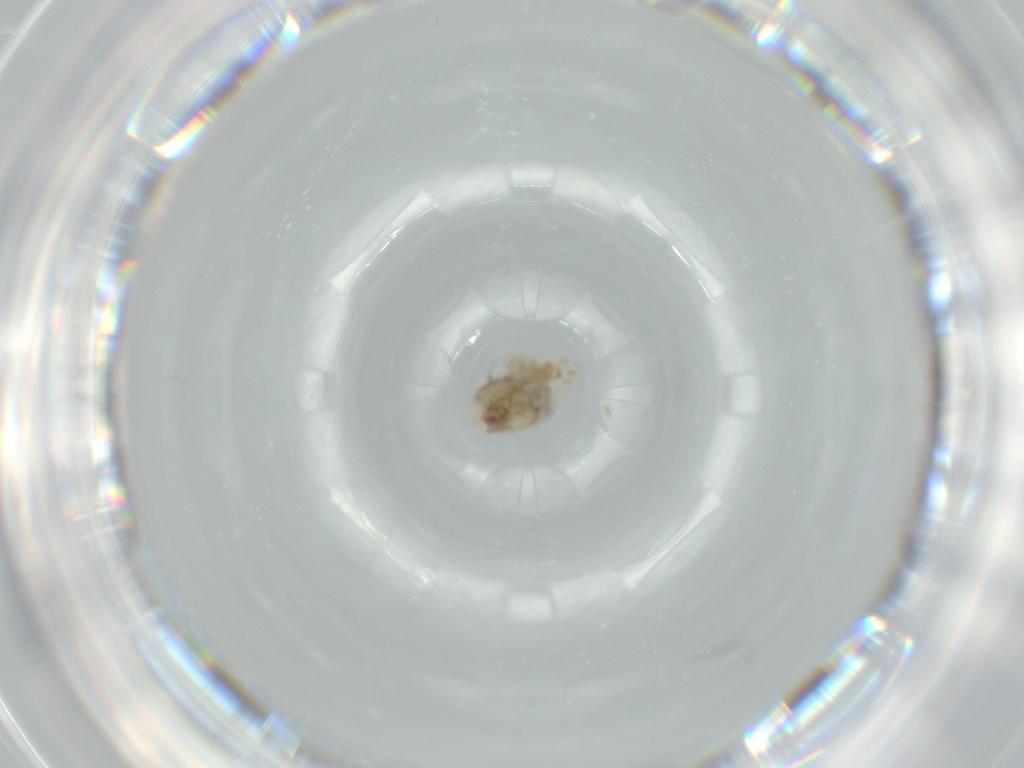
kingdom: Animalia
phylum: Arthropoda
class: Insecta
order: Hemiptera
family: Acanaloniidae
